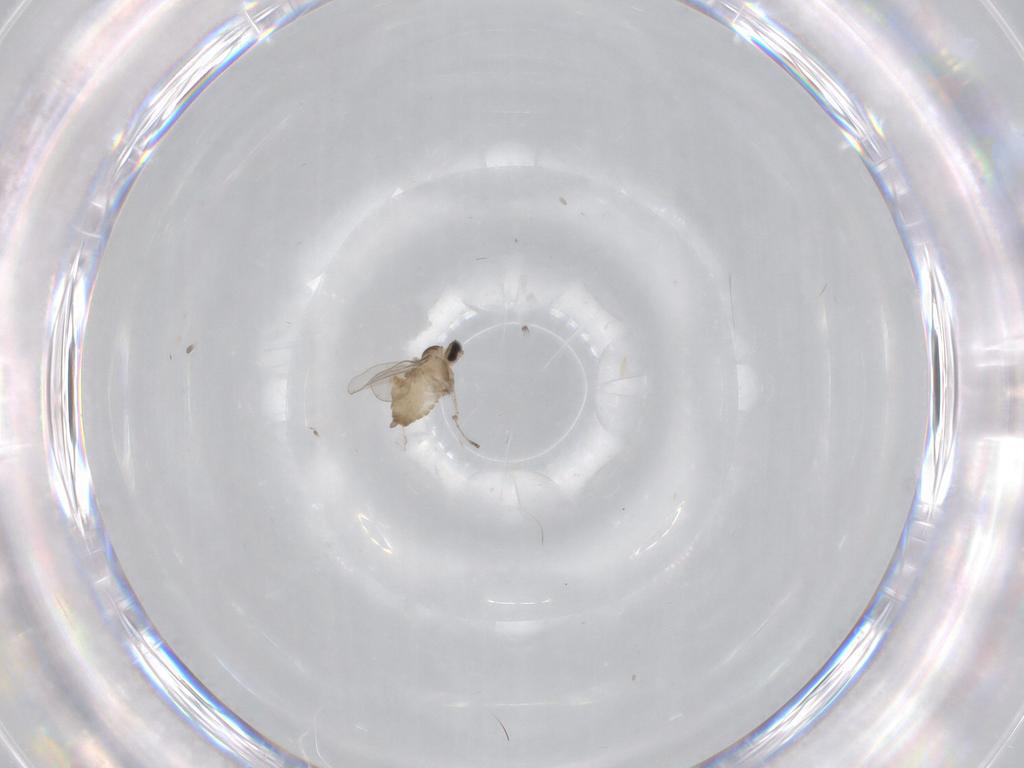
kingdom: Animalia
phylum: Arthropoda
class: Insecta
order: Diptera
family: Cecidomyiidae
